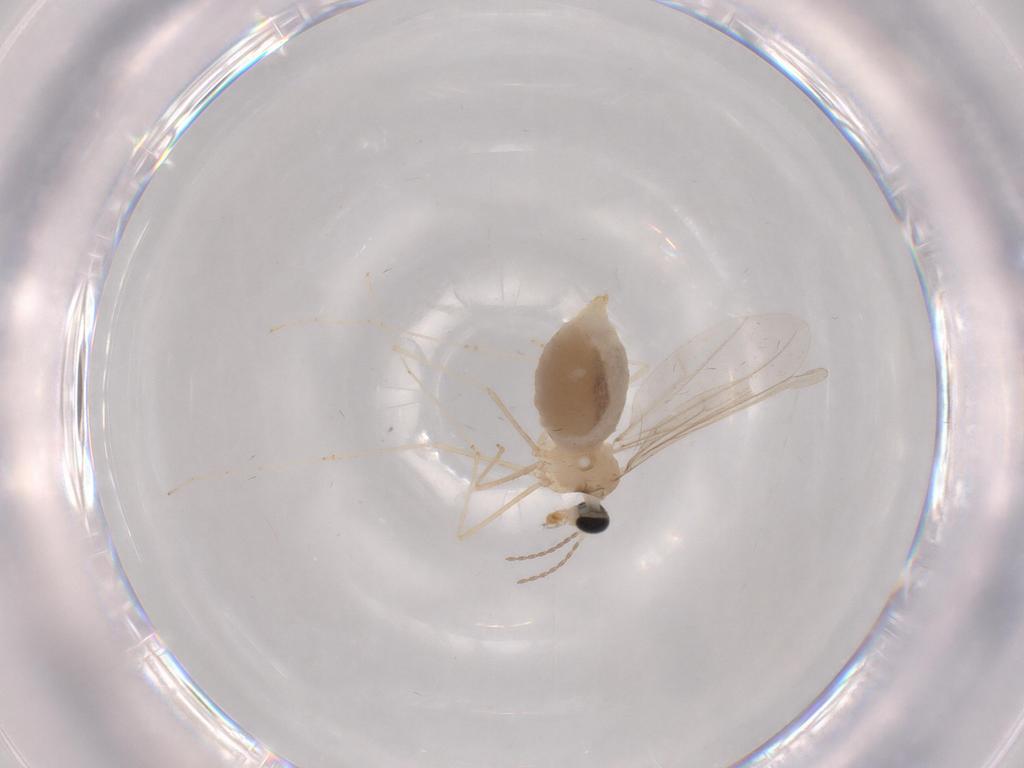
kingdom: Animalia
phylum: Arthropoda
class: Insecta
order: Diptera
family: Cecidomyiidae
